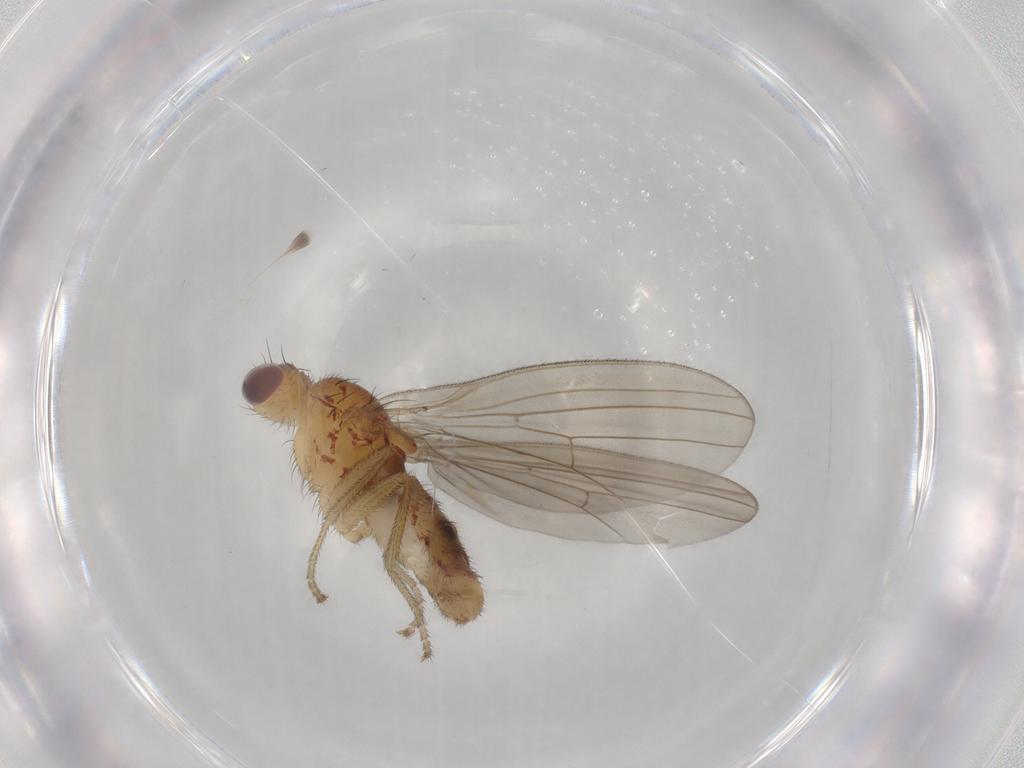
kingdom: Animalia
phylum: Arthropoda
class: Insecta
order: Diptera
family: Natalimyzidae
